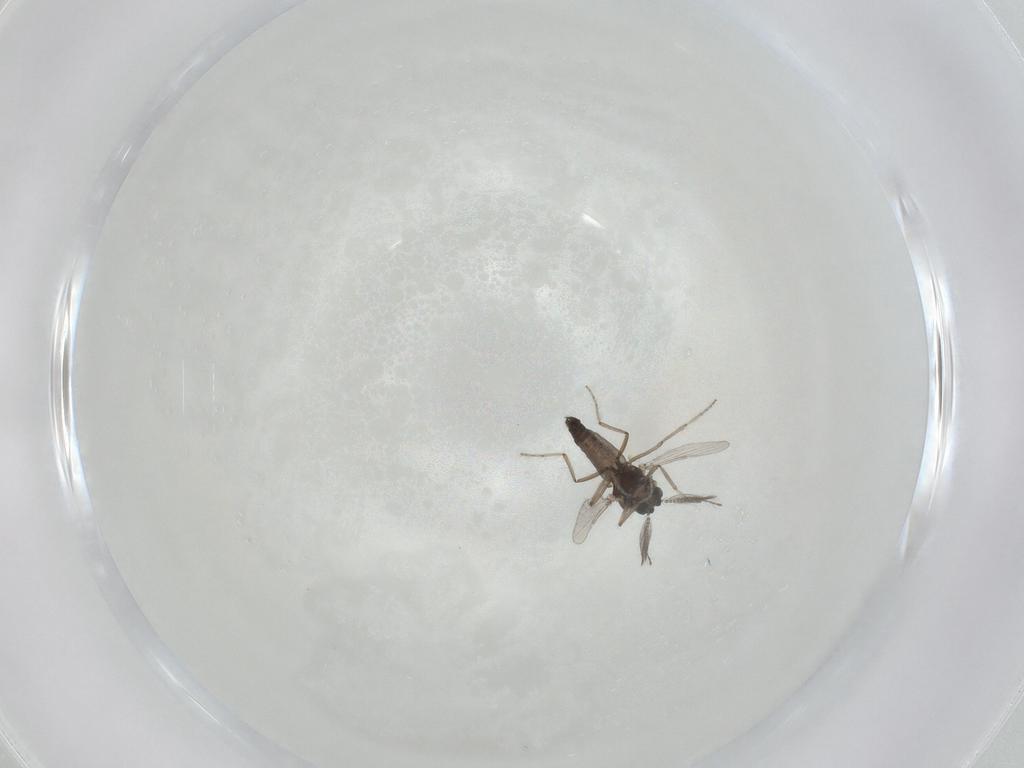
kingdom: Animalia
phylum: Arthropoda
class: Insecta
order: Diptera
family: Ceratopogonidae
